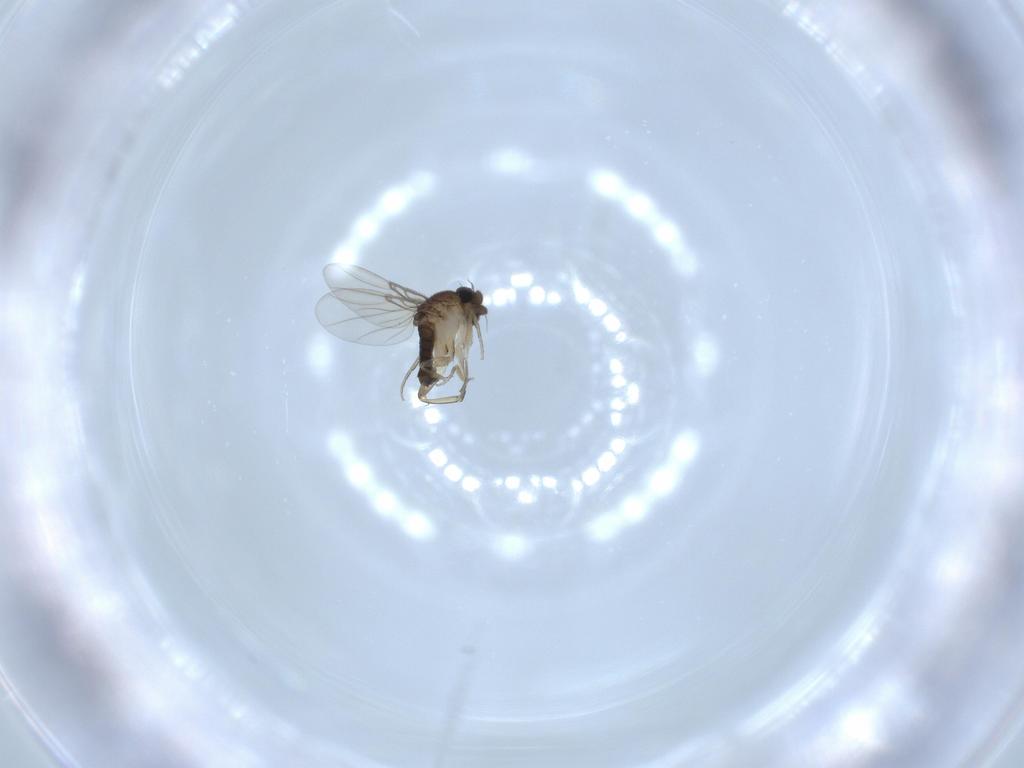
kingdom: Animalia
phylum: Arthropoda
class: Insecta
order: Diptera
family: Phoridae
